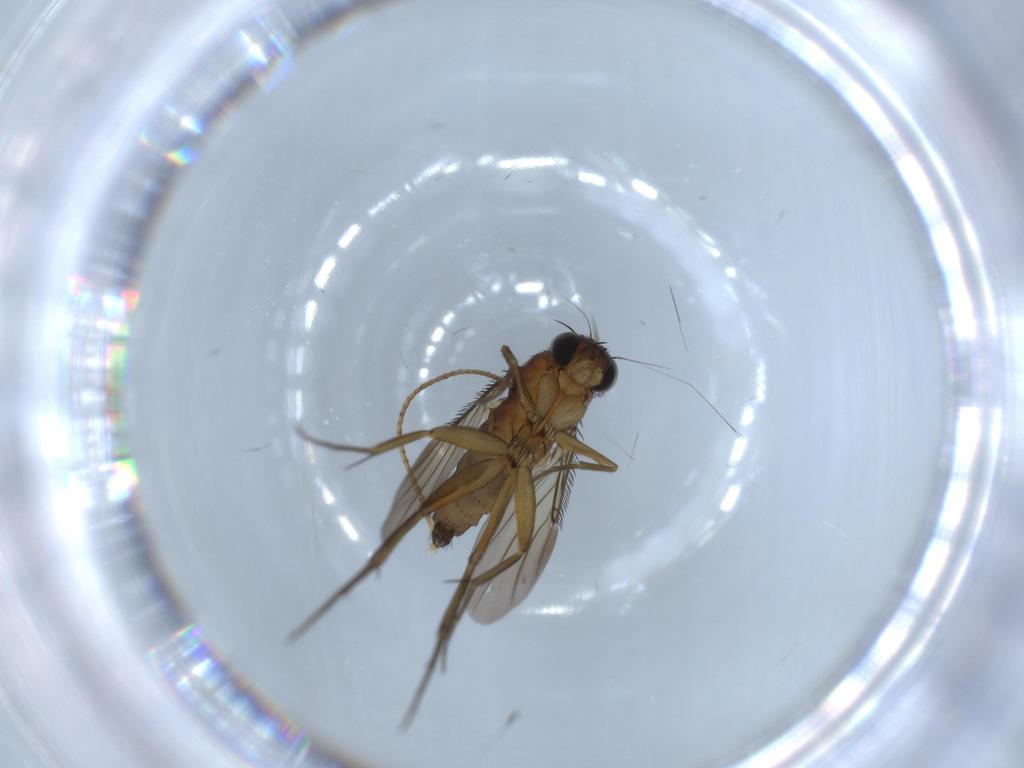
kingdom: Animalia
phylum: Arthropoda
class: Insecta
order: Diptera
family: Phoridae
